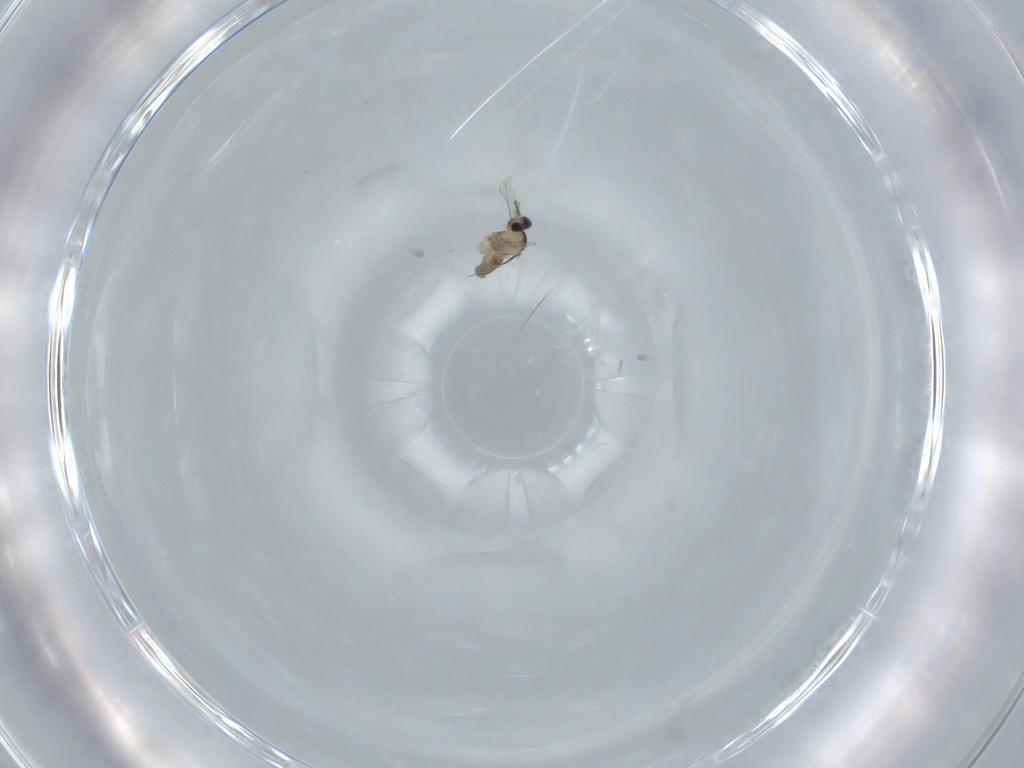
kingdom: Animalia
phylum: Arthropoda
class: Insecta
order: Diptera
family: Cecidomyiidae
